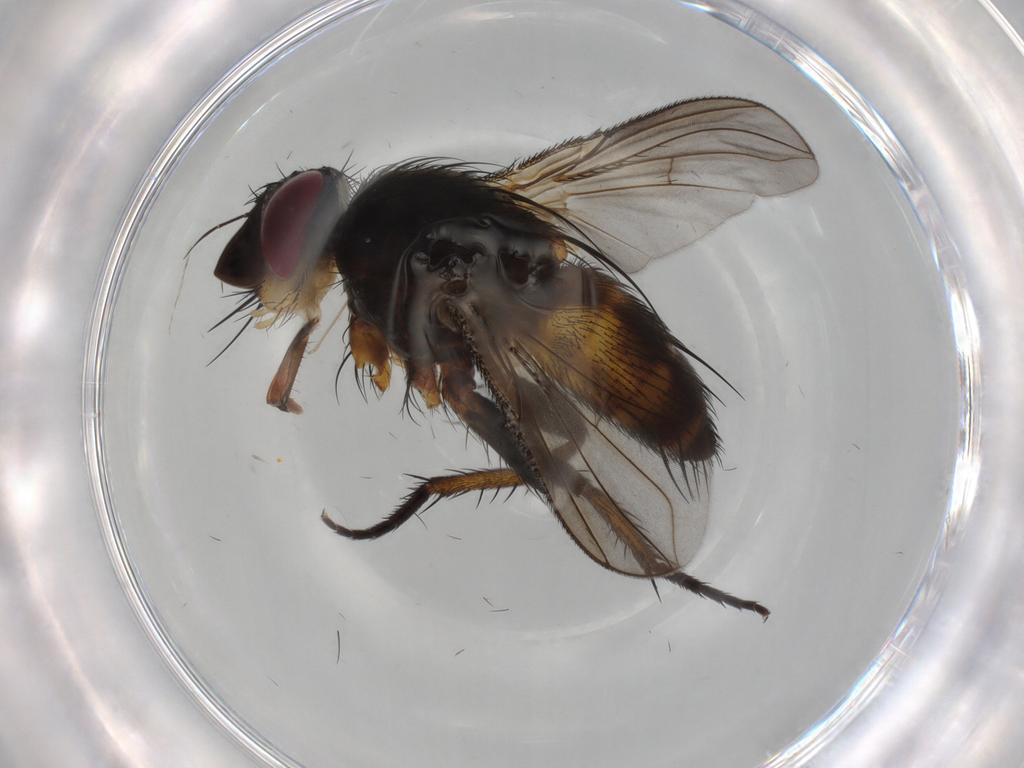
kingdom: Animalia
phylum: Arthropoda
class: Insecta
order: Diptera
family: Tachinidae
